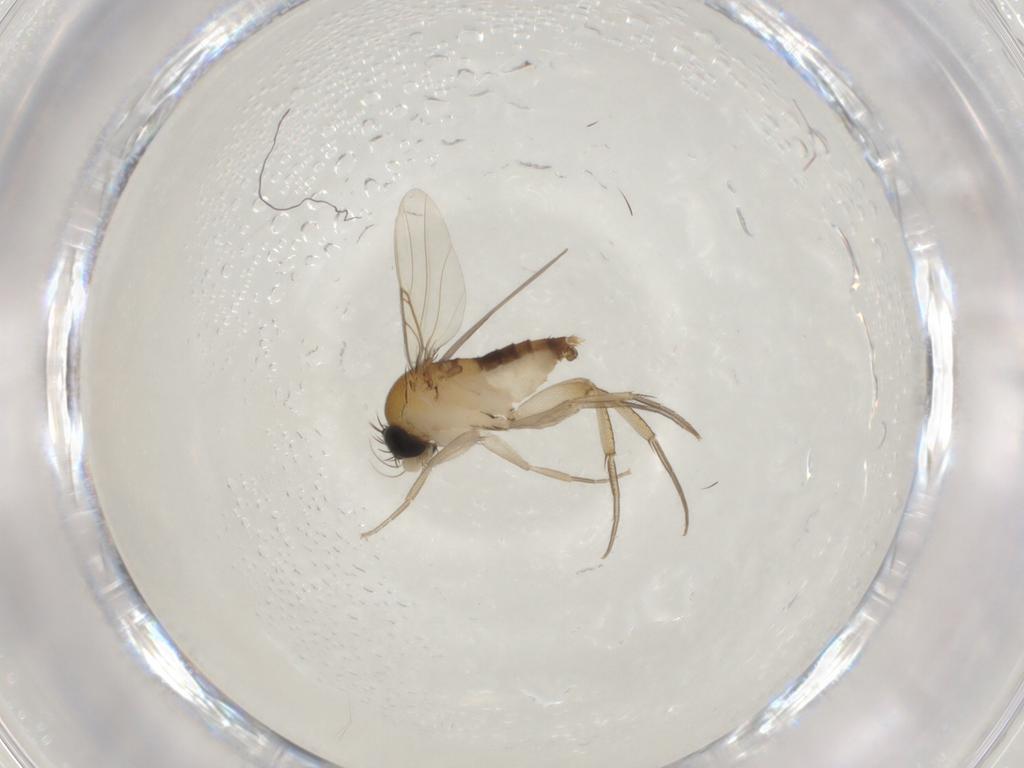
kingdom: Animalia
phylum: Arthropoda
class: Insecta
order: Diptera
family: Phoridae
